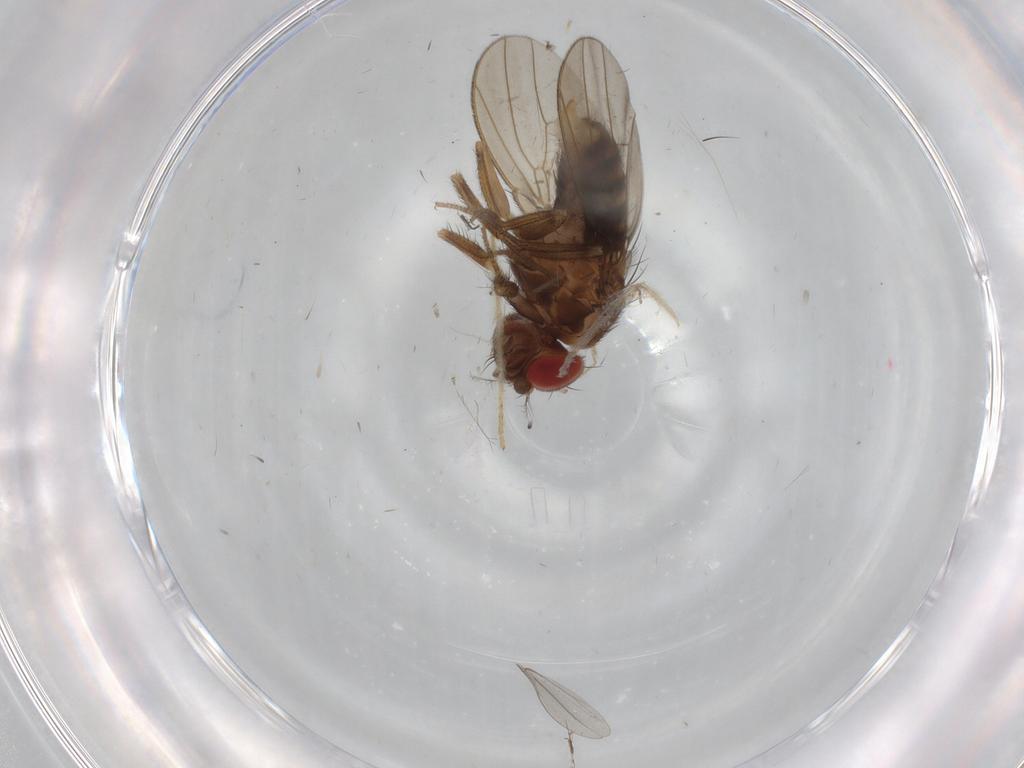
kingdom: Animalia
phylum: Arthropoda
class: Insecta
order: Diptera
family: Drosophilidae
